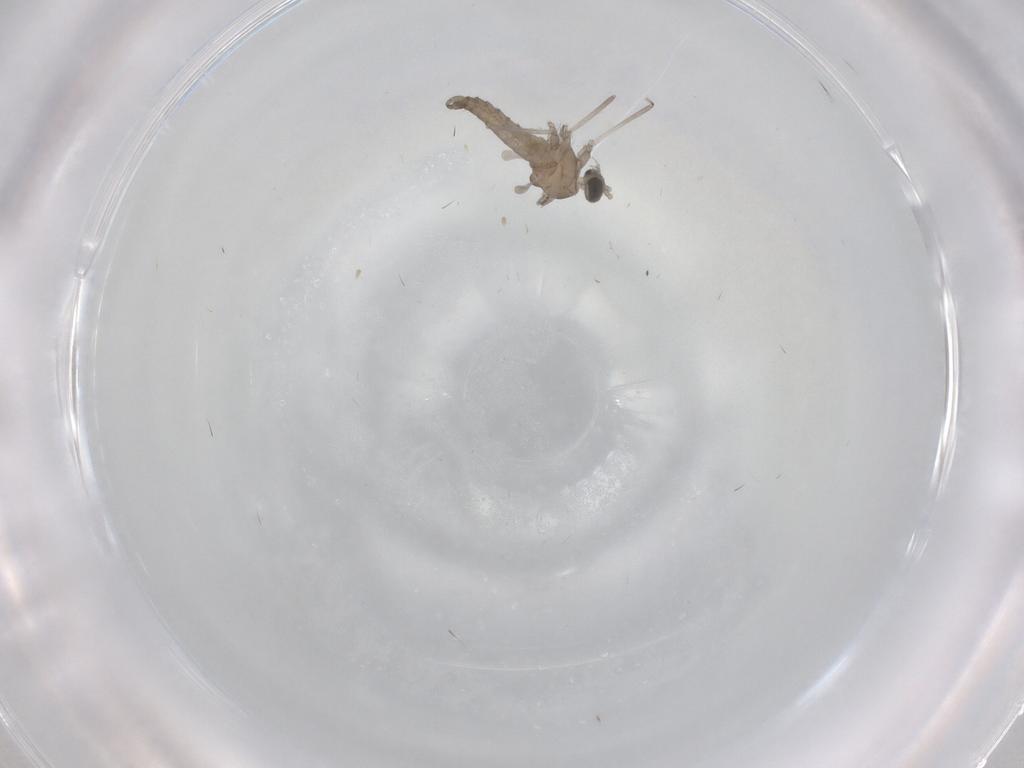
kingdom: Animalia
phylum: Arthropoda
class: Insecta
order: Diptera
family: Cecidomyiidae
